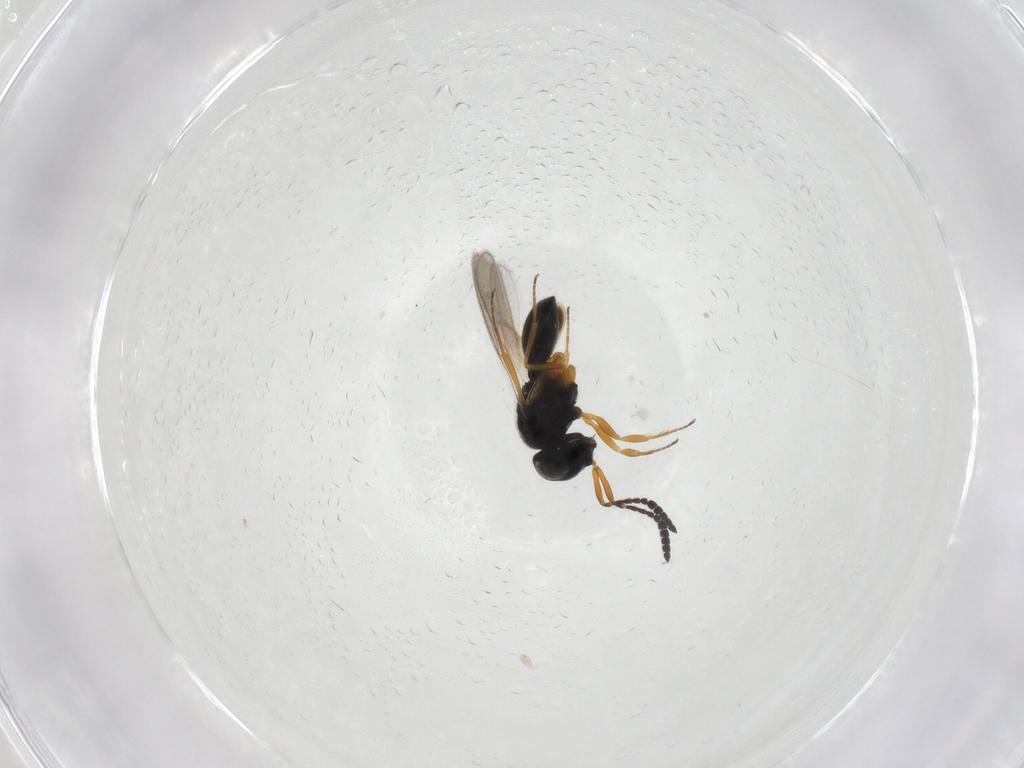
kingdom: Animalia
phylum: Arthropoda
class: Insecta
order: Hymenoptera
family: Scelionidae
